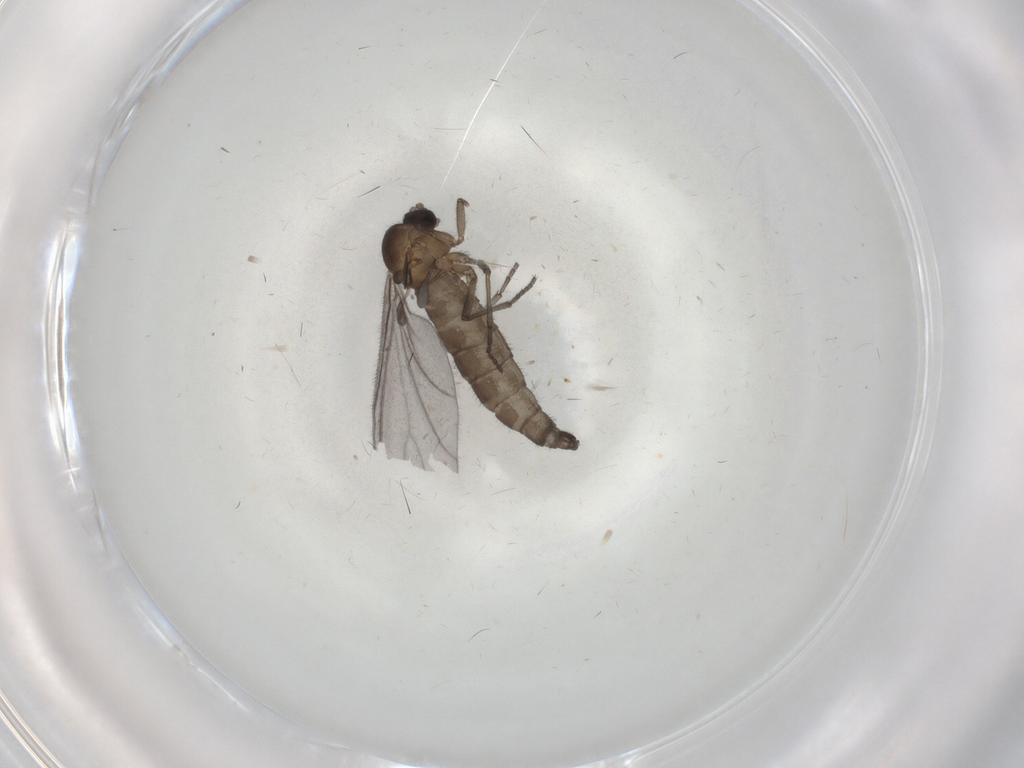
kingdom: Animalia
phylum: Arthropoda
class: Insecta
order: Diptera
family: Sciaridae
